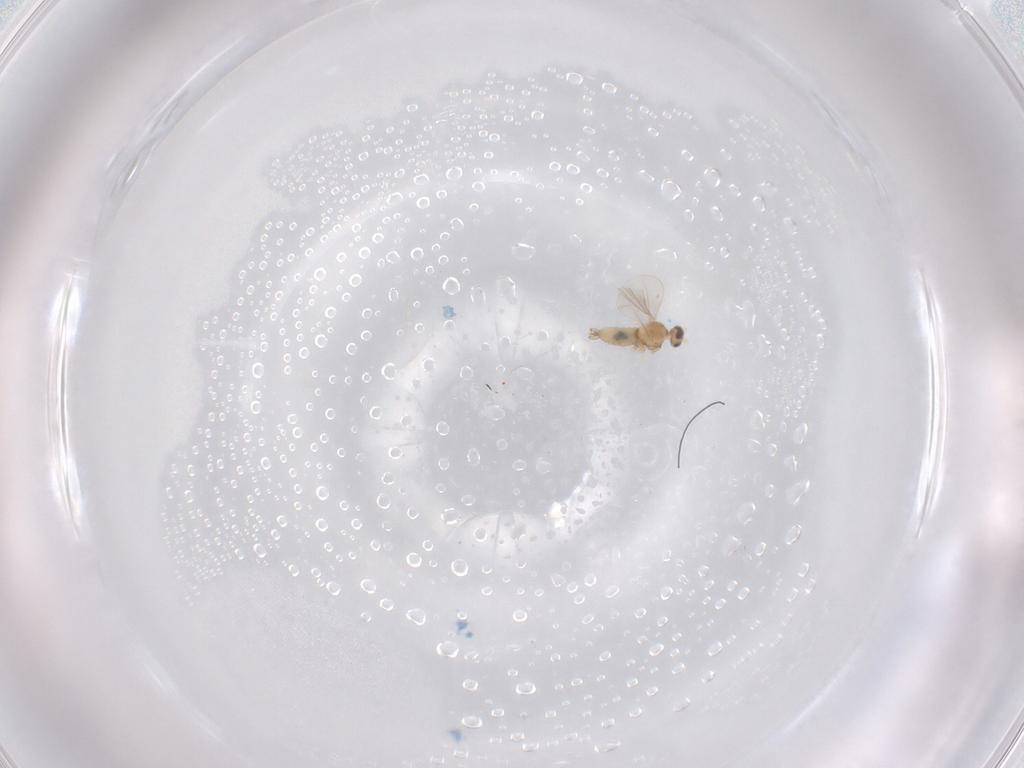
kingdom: Animalia
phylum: Arthropoda
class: Insecta
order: Diptera
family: Cecidomyiidae
